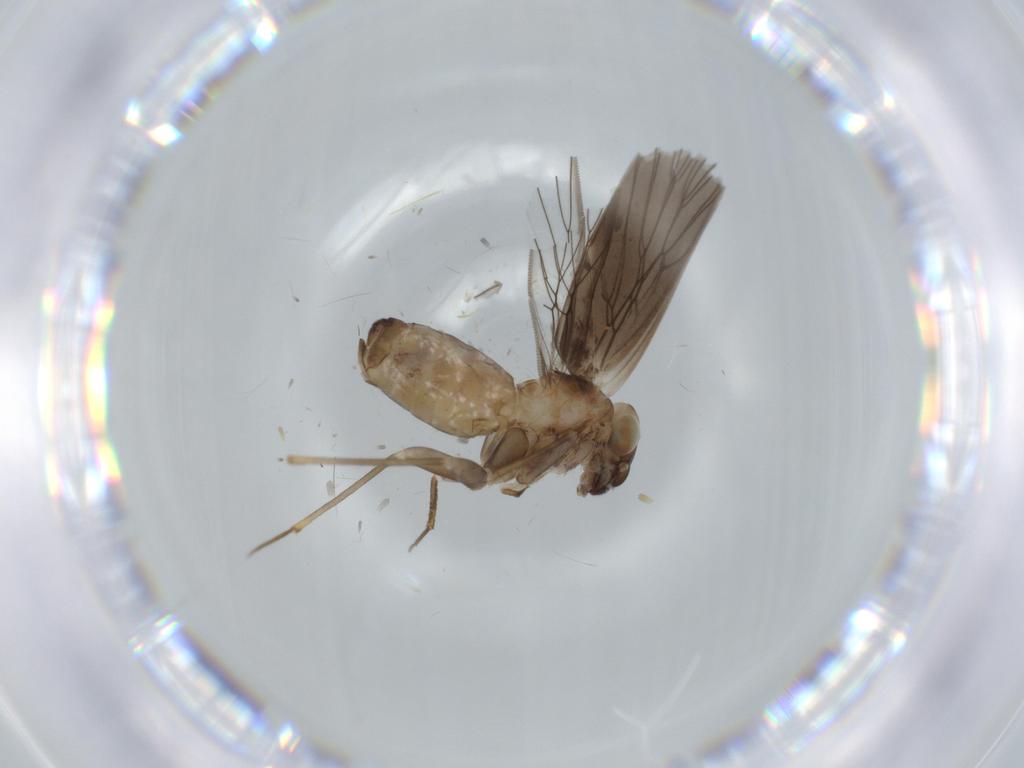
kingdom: Animalia
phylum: Arthropoda
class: Insecta
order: Psocodea
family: Lepidopsocidae
